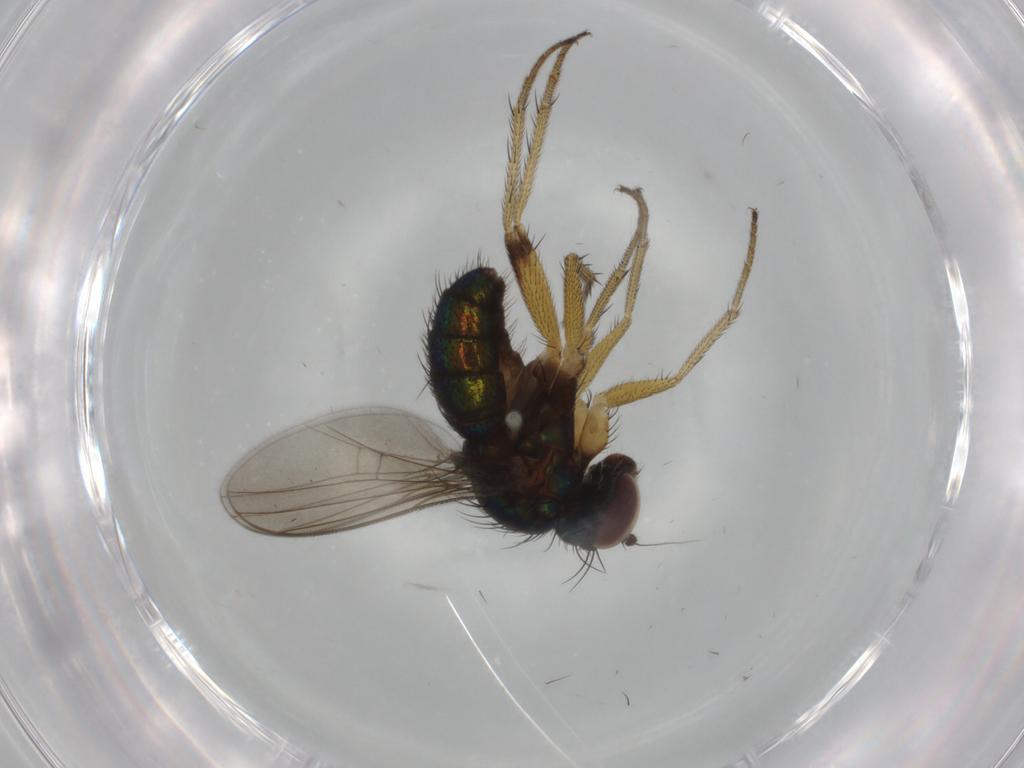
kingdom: Animalia
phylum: Arthropoda
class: Insecta
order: Diptera
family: Dolichopodidae
